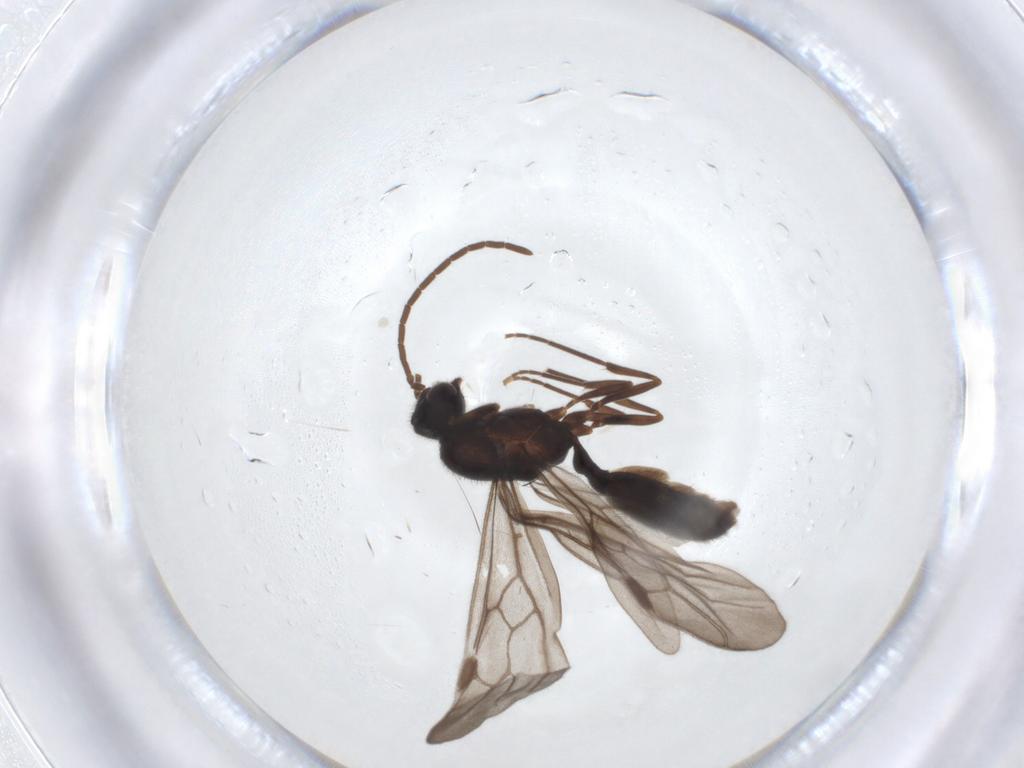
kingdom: Animalia
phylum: Arthropoda
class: Insecta
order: Hymenoptera
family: Formicidae
